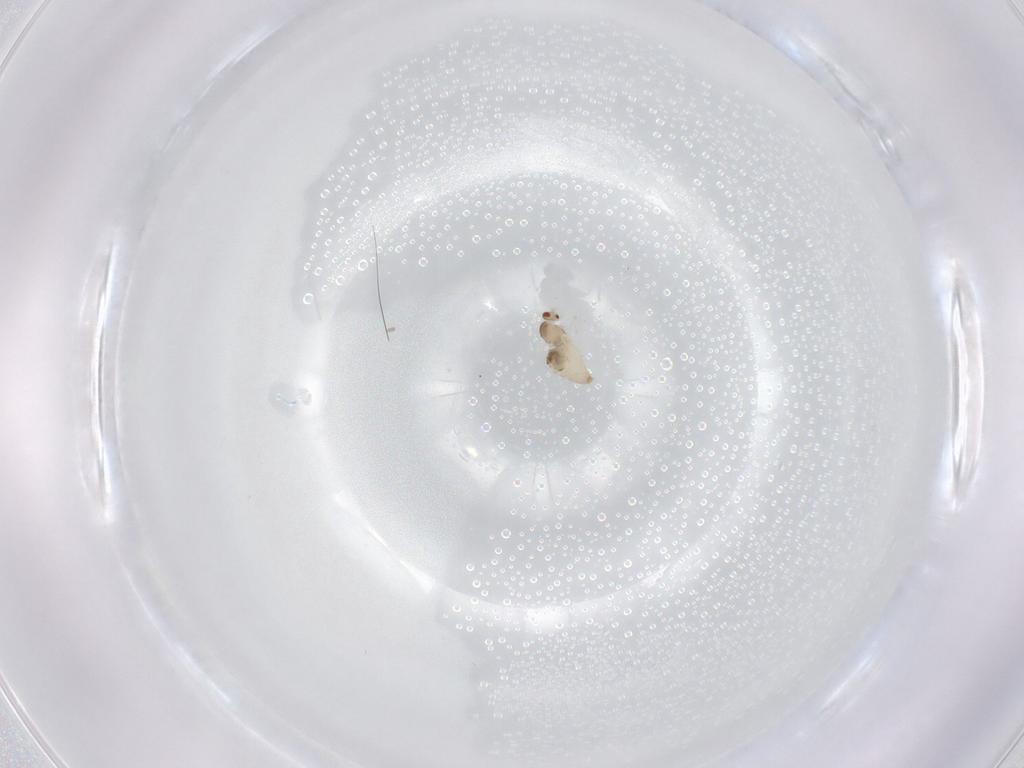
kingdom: Animalia
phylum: Arthropoda
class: Insecta
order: Diptera
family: Cecidomyiidae
